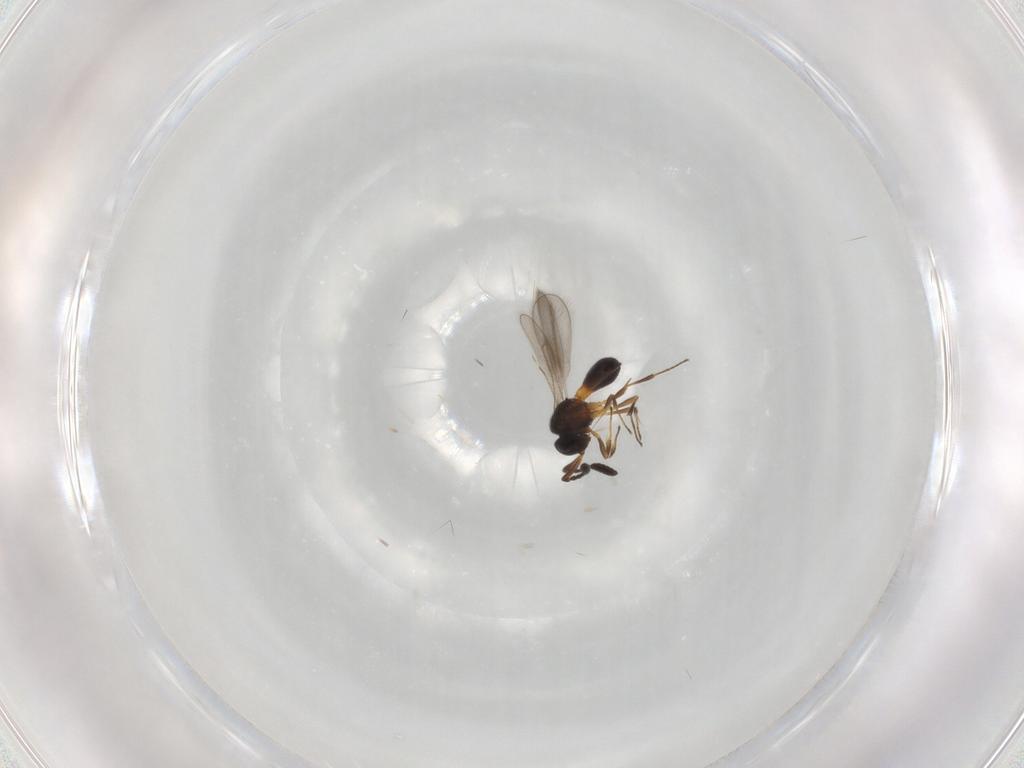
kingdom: Animalia
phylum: Arthropoda
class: Insecta
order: Hymenoptera
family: Scelionidae
